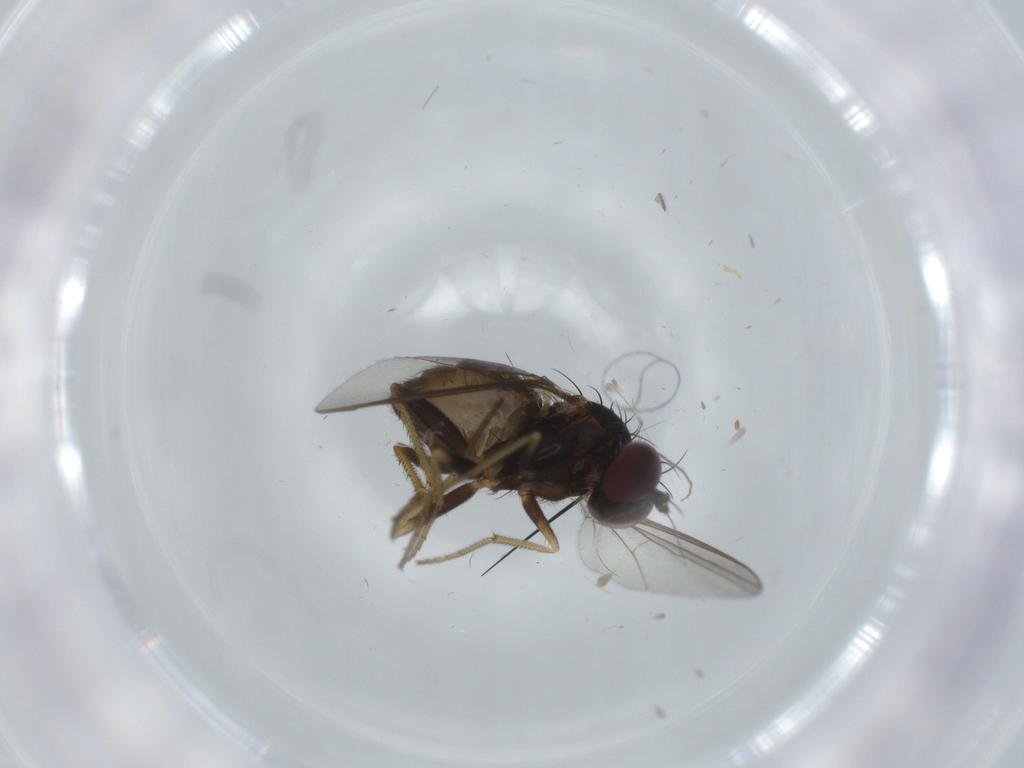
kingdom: Animalia
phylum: Arthropoda
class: Insecta
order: Diptera
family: Dolichopodidae
